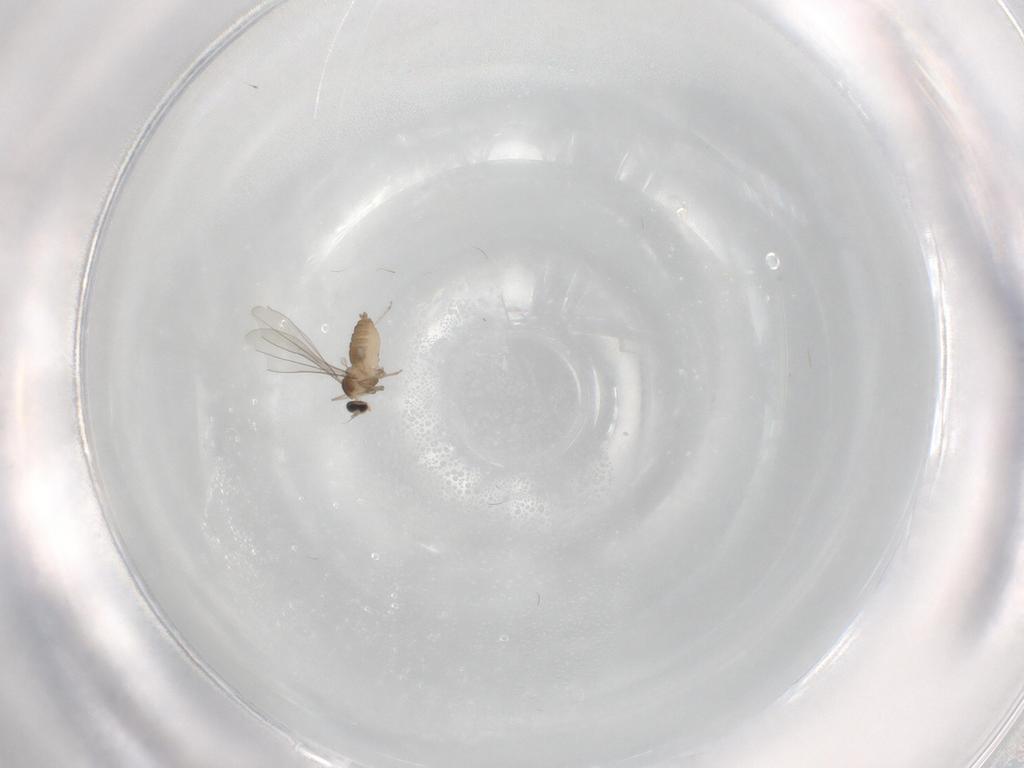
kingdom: Animalia
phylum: Arthropoda
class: Insecta
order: Diptera
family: Cecidomyiidae
